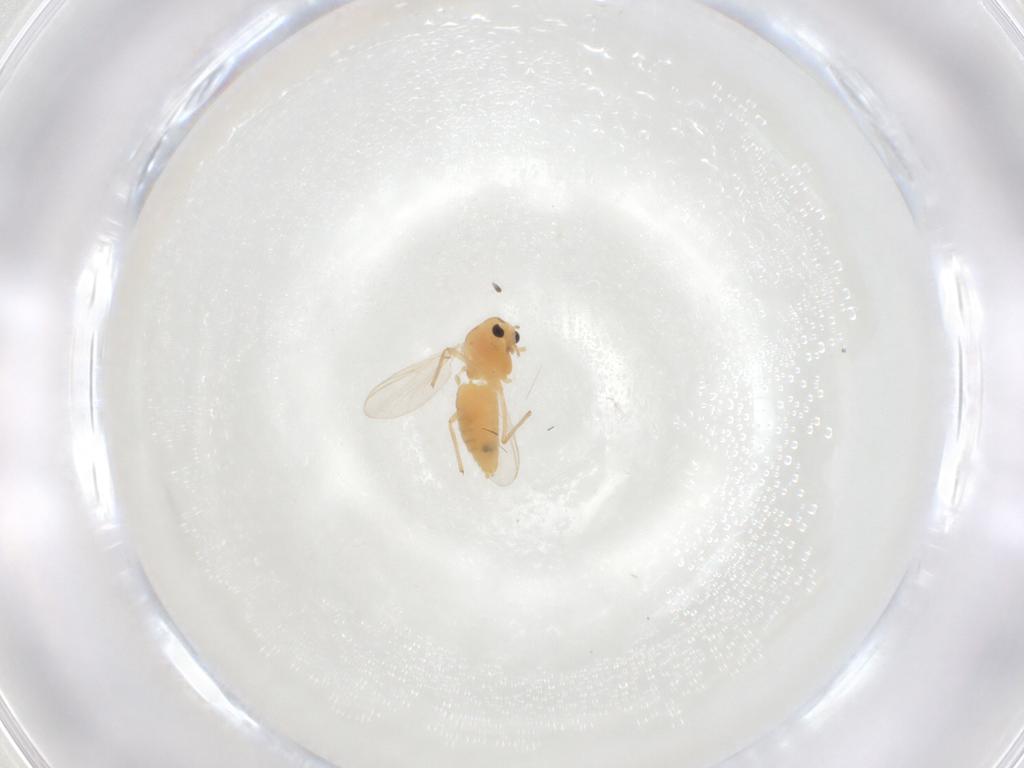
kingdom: Animalia
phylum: Arthropoda
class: Insecta
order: Diptera
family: Chironomidae
